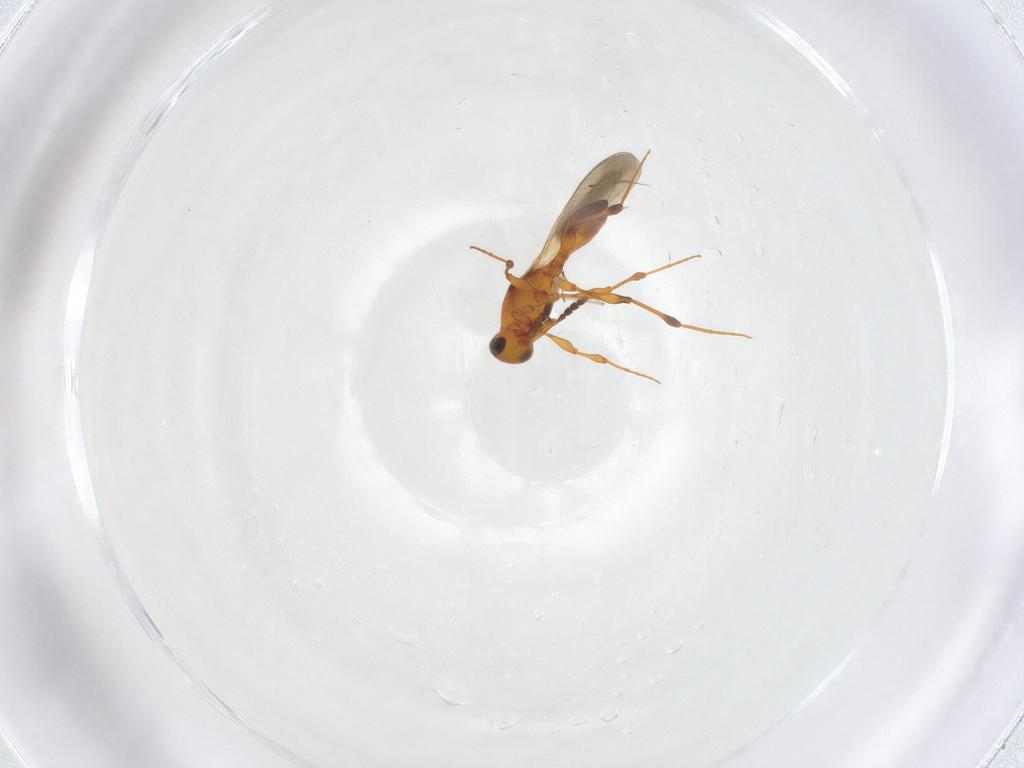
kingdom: Animalia
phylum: Arthropoda
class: Insecta
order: Hymenoptera
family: Platygastridae
